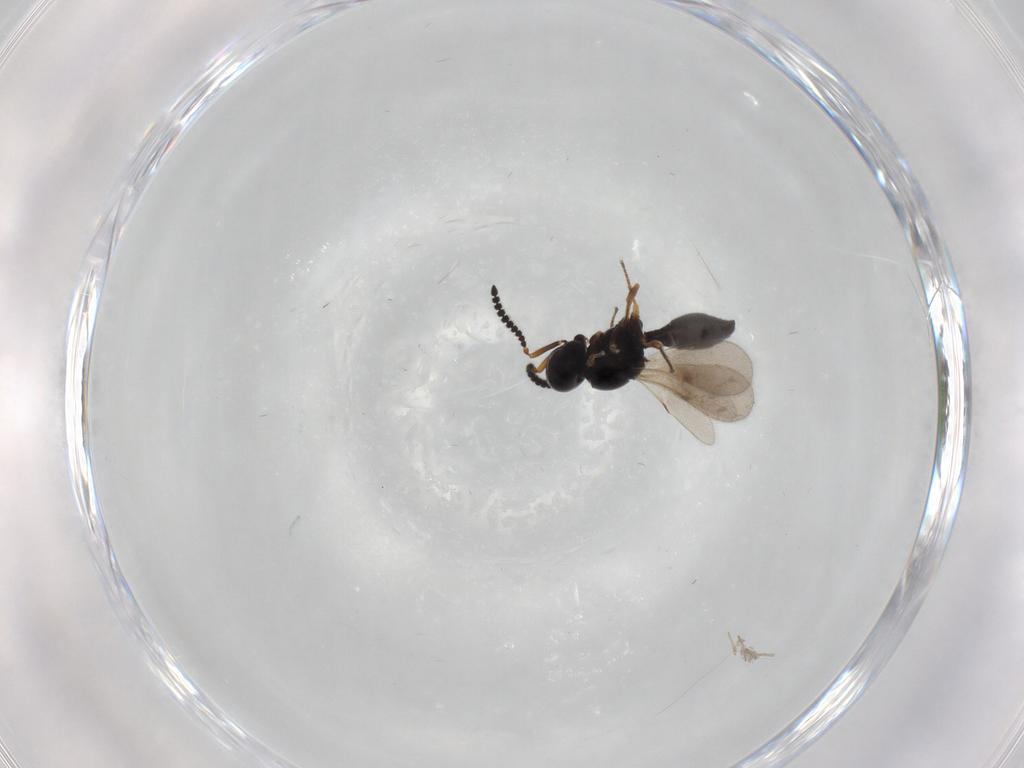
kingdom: Animalia
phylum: Arthropoda
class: Insecta
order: Hymenoptera
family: Scelionidae
